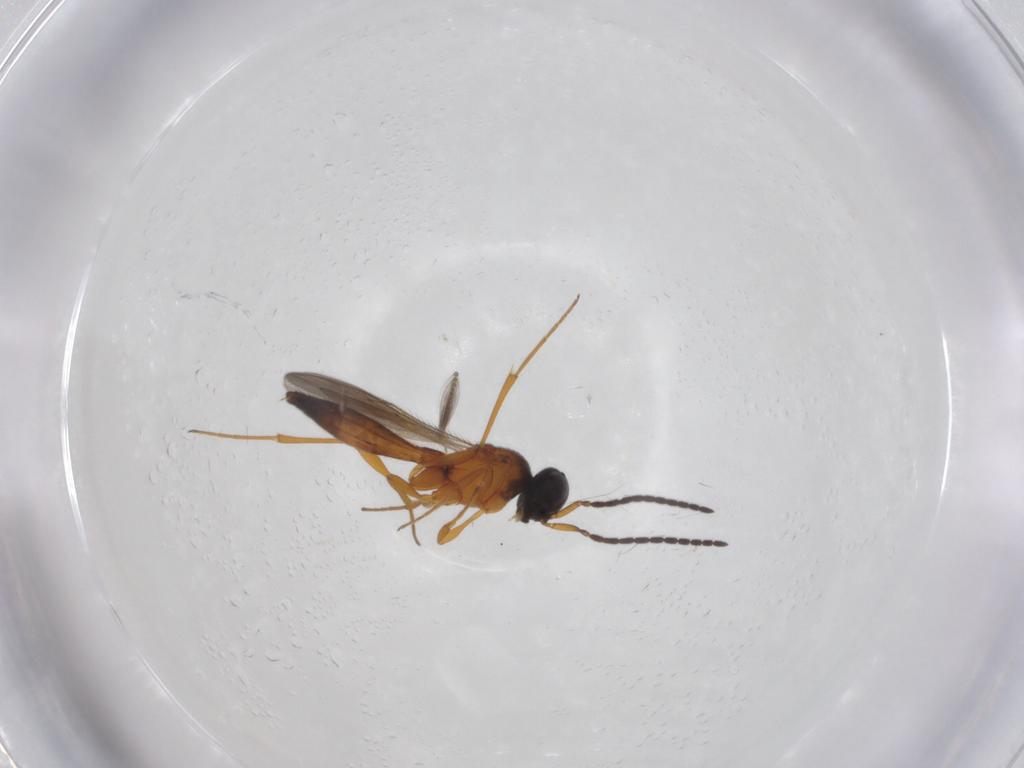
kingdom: Animalia
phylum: Arthropoda
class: Insecta
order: Hymenoptera
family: Scelionidae
